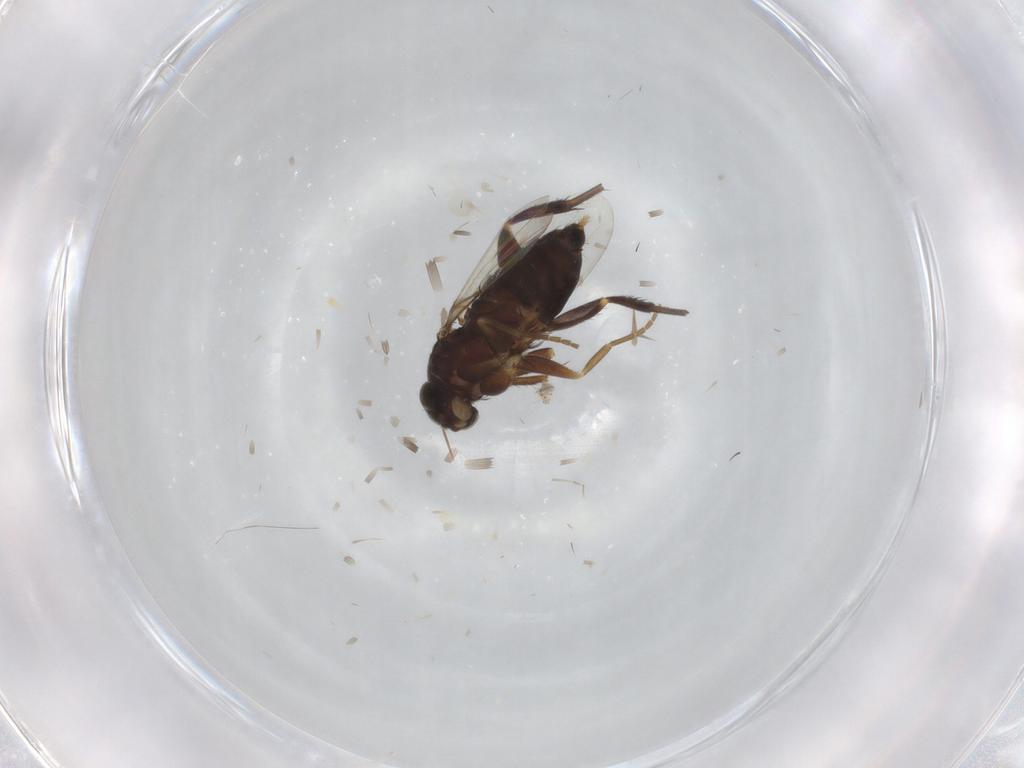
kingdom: Animalia
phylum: Arthropoda
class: Insecta
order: Diptera
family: Phoridae
